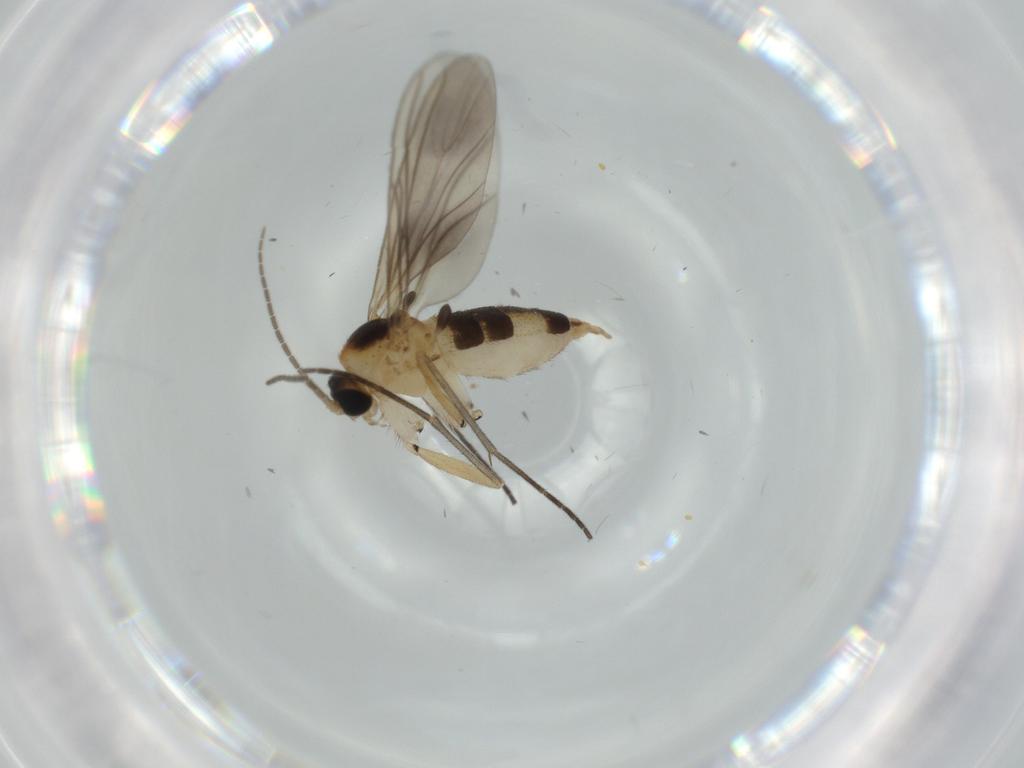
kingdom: Animalia
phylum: Arthropoda
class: Insecta
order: Diptera
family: Sciaridae
